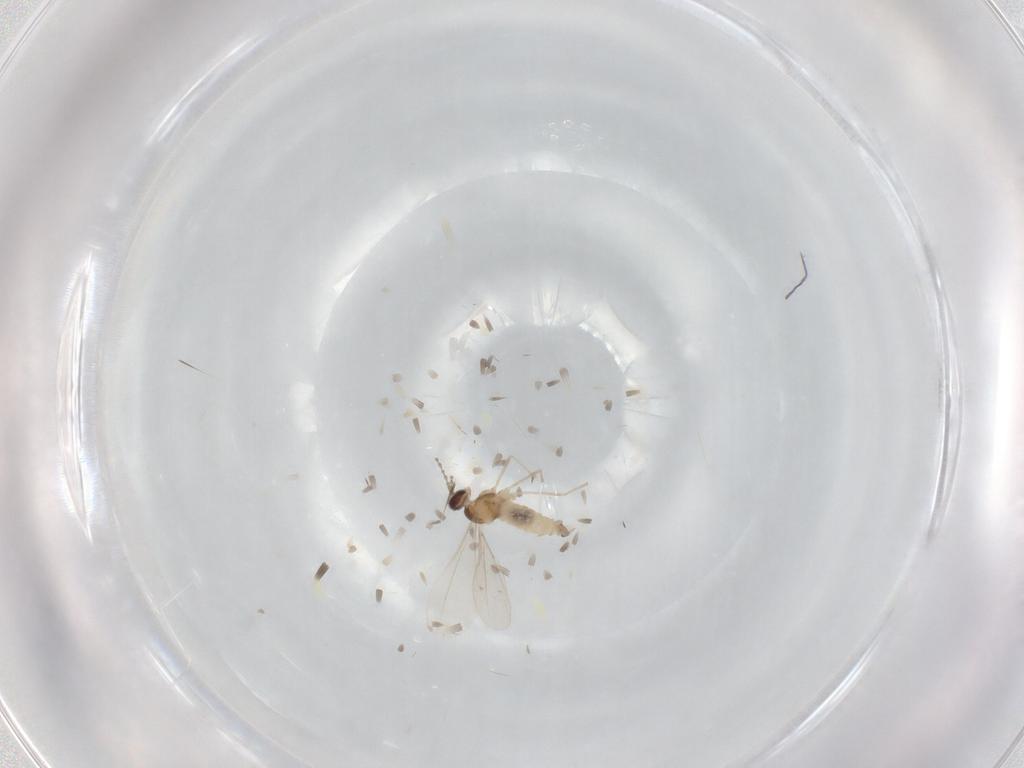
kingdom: Animalia
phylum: Arthropoda
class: Insecta
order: Diptera
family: Cecidomyiidae
